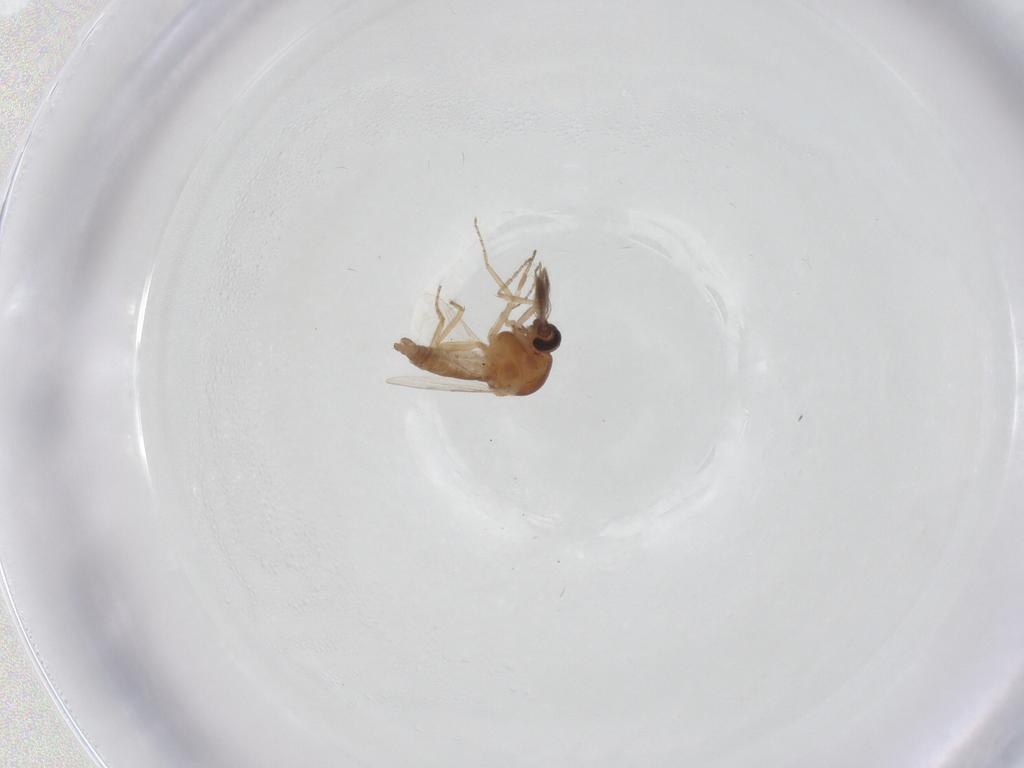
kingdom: Animalia
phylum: Arthropoda
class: Insecta
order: Diptera
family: Ceratopogonidae
